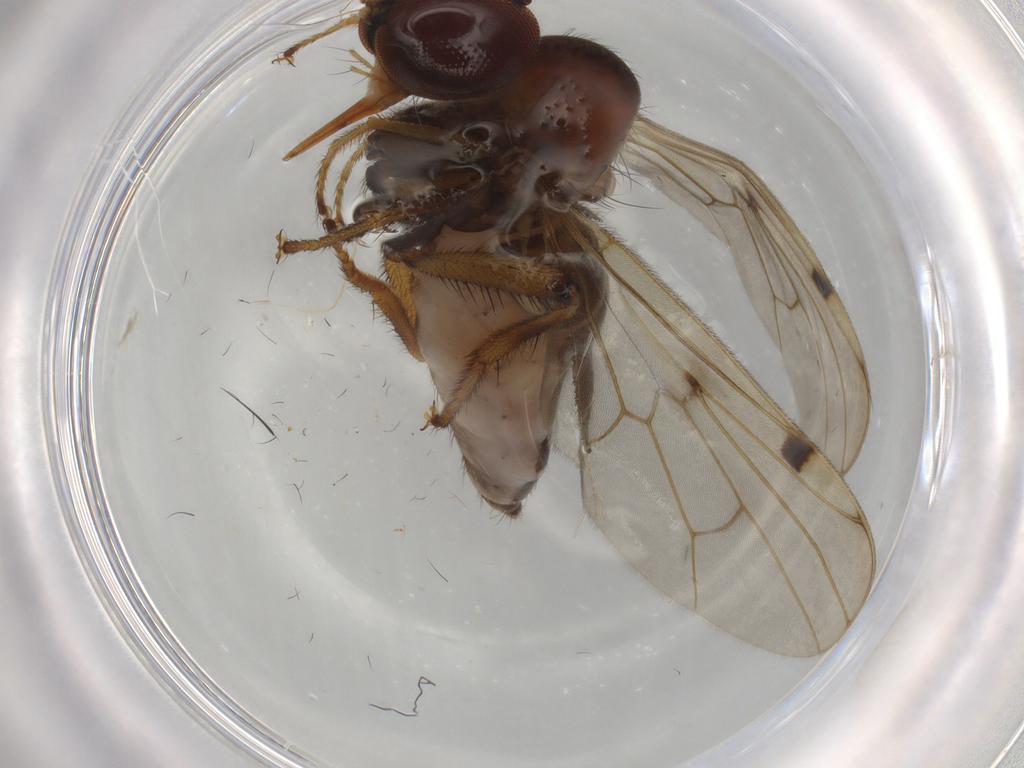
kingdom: Animalia
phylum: Arthropoda
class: Insecta
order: Diptera
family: Hybotidae
